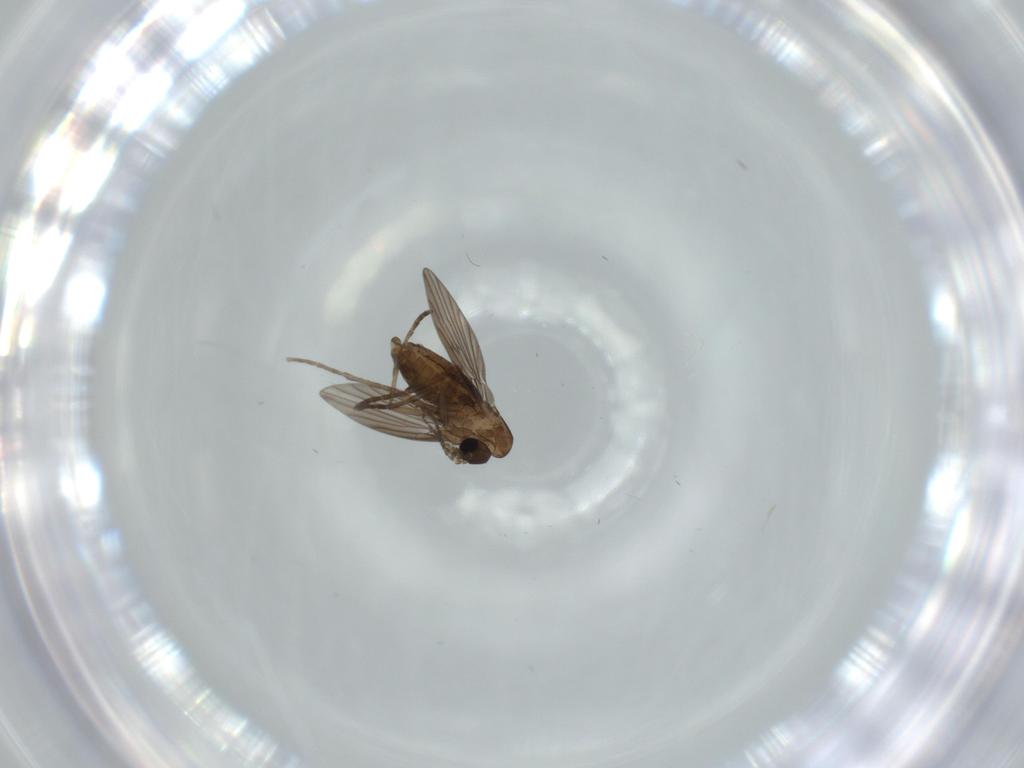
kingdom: Animalia
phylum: Arthropoda
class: Insecta
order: Diptera
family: Psychodidae
